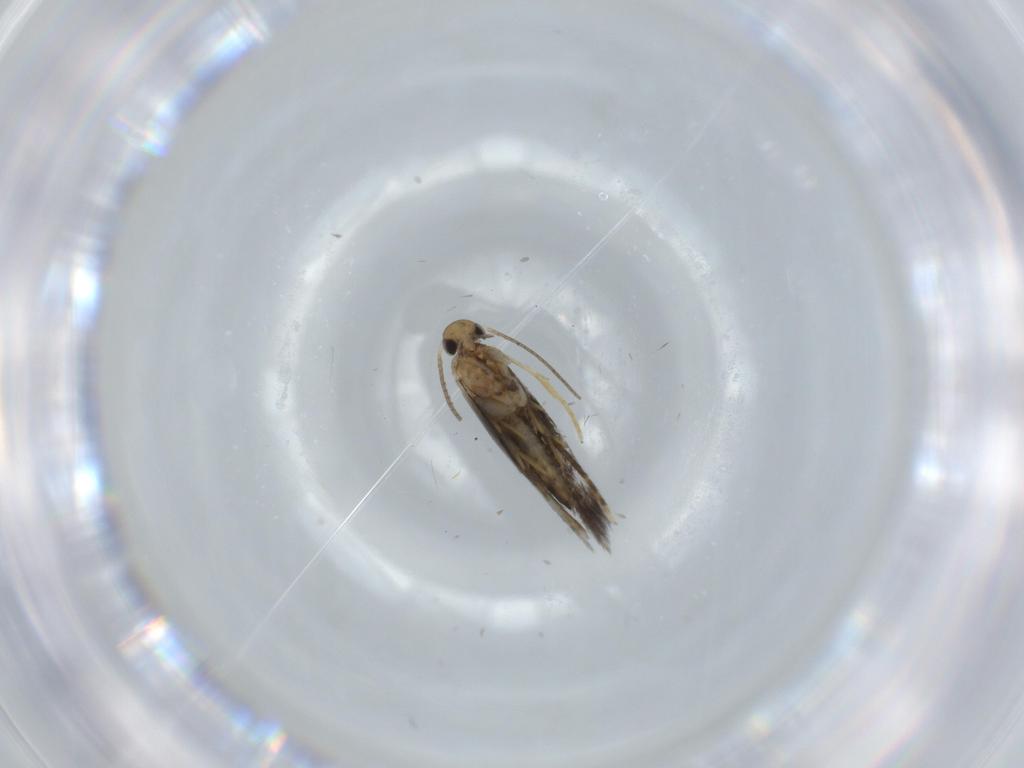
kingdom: Animalia
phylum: Arthropoda
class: Insecta
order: Lepidoptera
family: Heliozelidae
